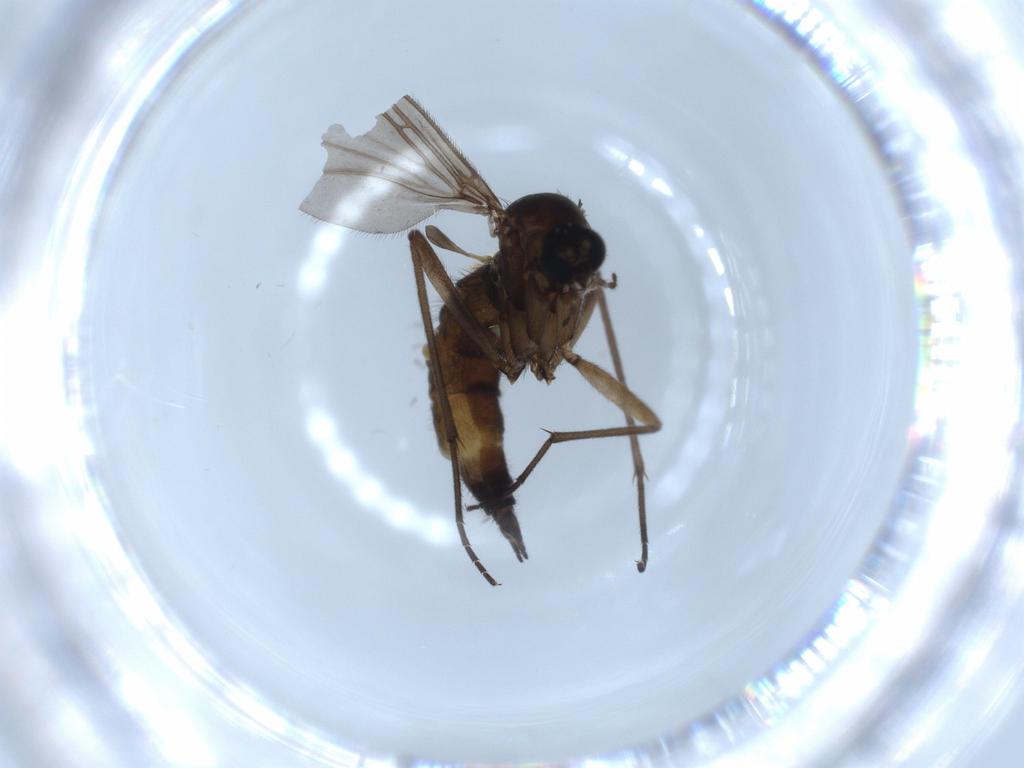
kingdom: Animalia
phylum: Arthropoda
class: Insecta
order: Diptera
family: Sciaridae
